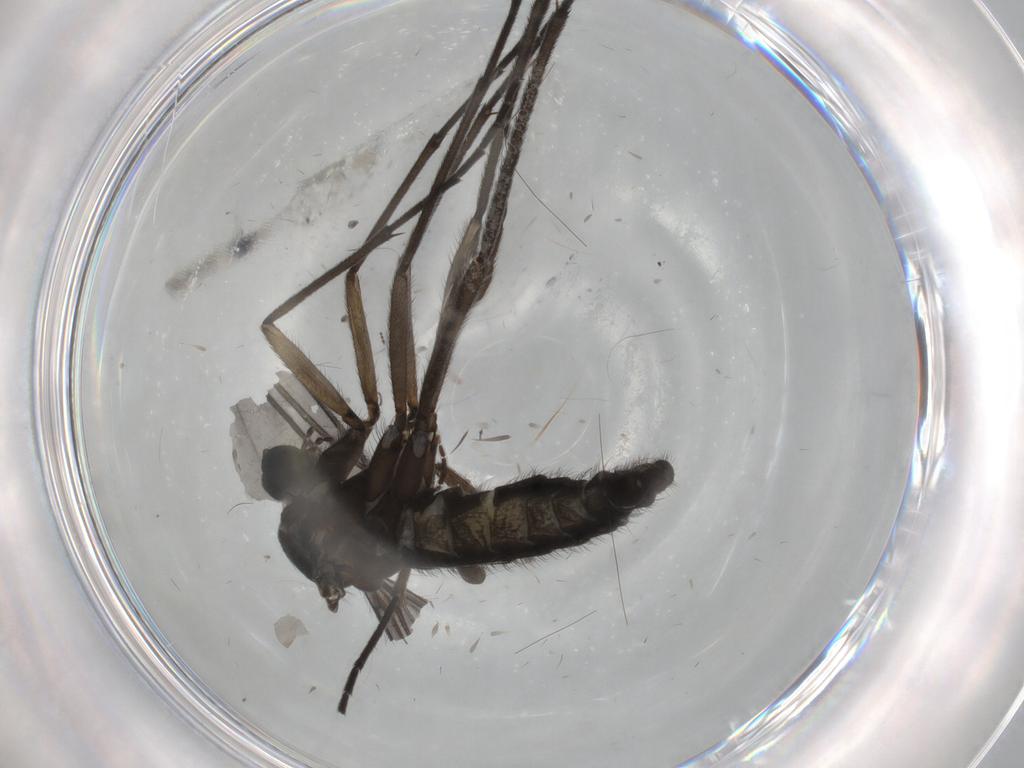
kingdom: Animalia
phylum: Arthropoda
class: Insecta
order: Diptera
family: Sciaridae
